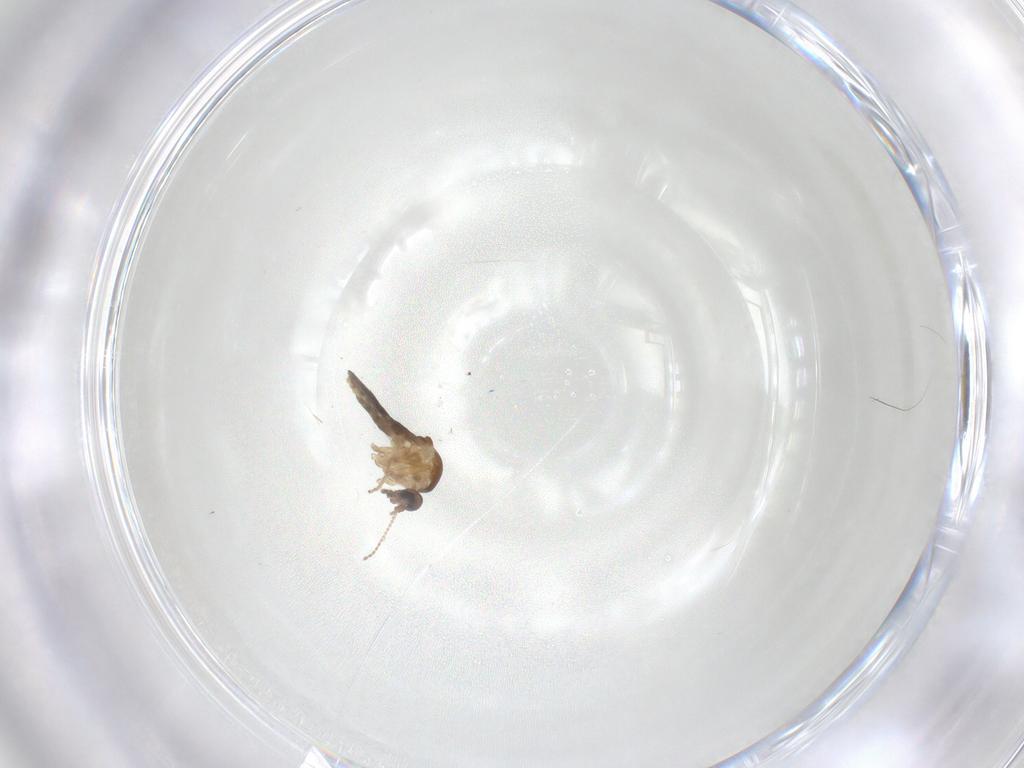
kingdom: Animalia
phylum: Arthropoda
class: Insecta
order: Diptera
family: Ceratopogonidae
